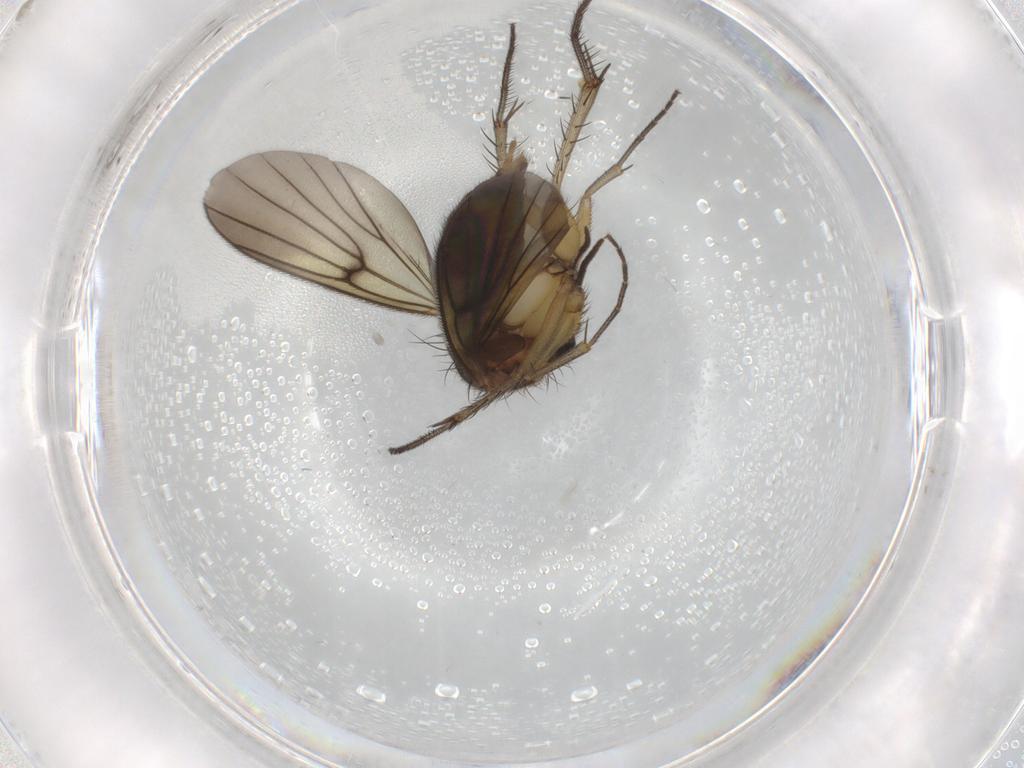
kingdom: Animalia
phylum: Arthropoda
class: Insecta
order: Diptera
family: Mycetophilidae
